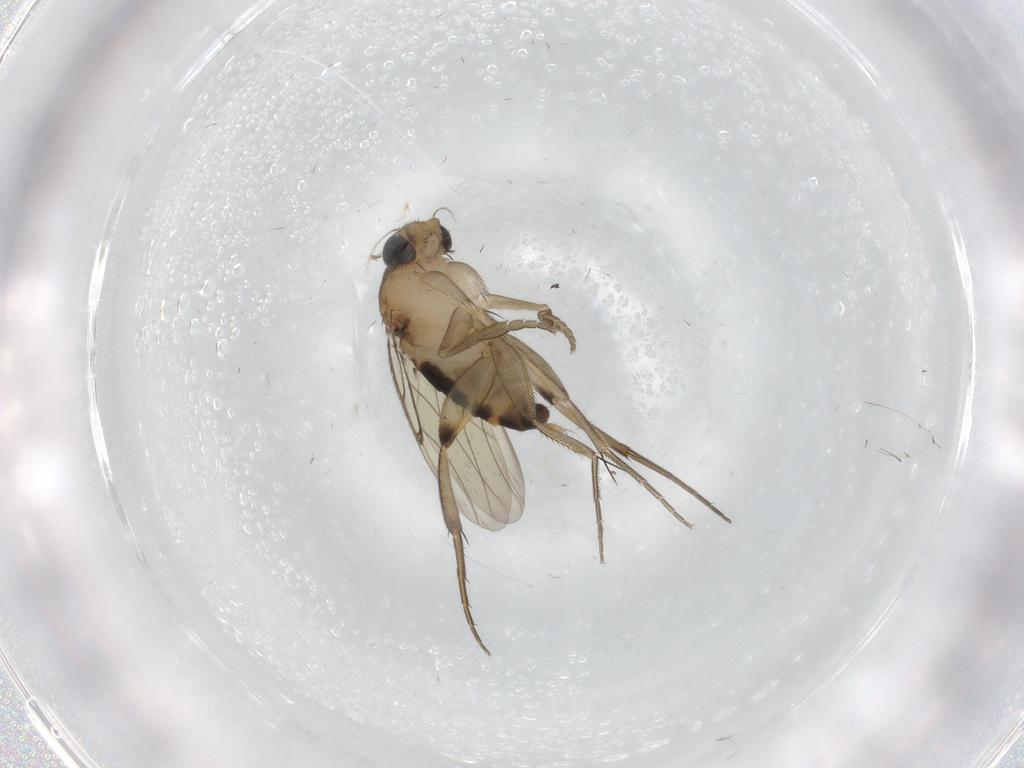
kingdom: Animalia
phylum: Arthropoda
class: Insecta
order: Diptera
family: Phoridae
